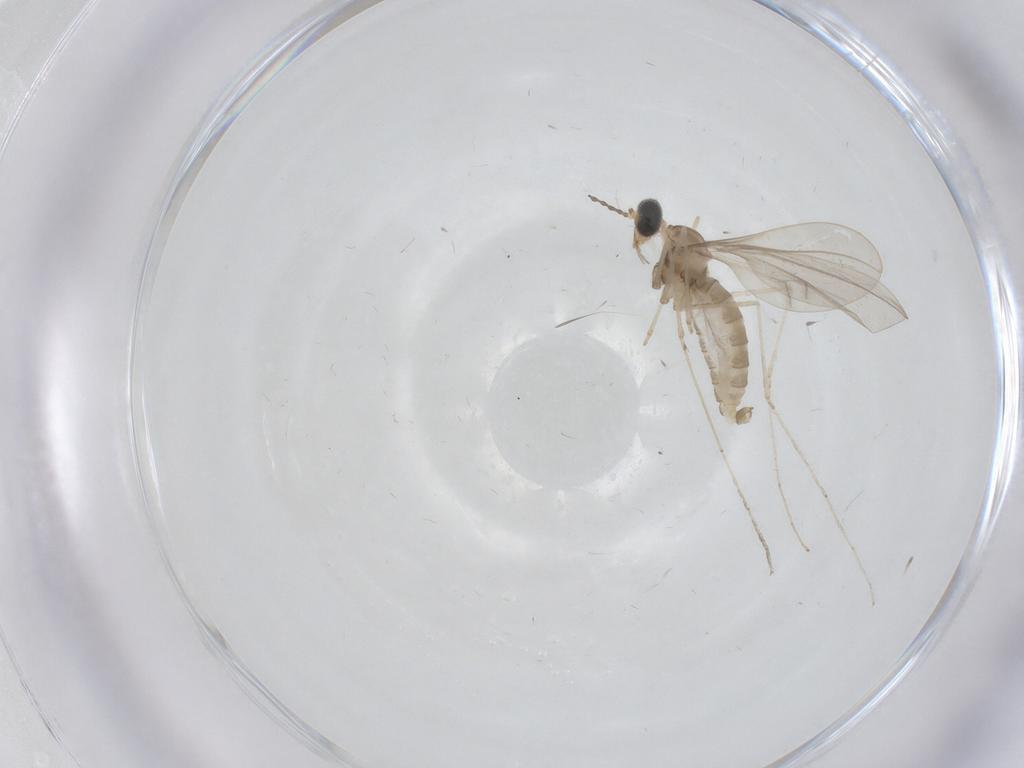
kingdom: Animalia
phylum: Arthropoda
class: Insecta
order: Diptera
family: Cecidomyiidae
